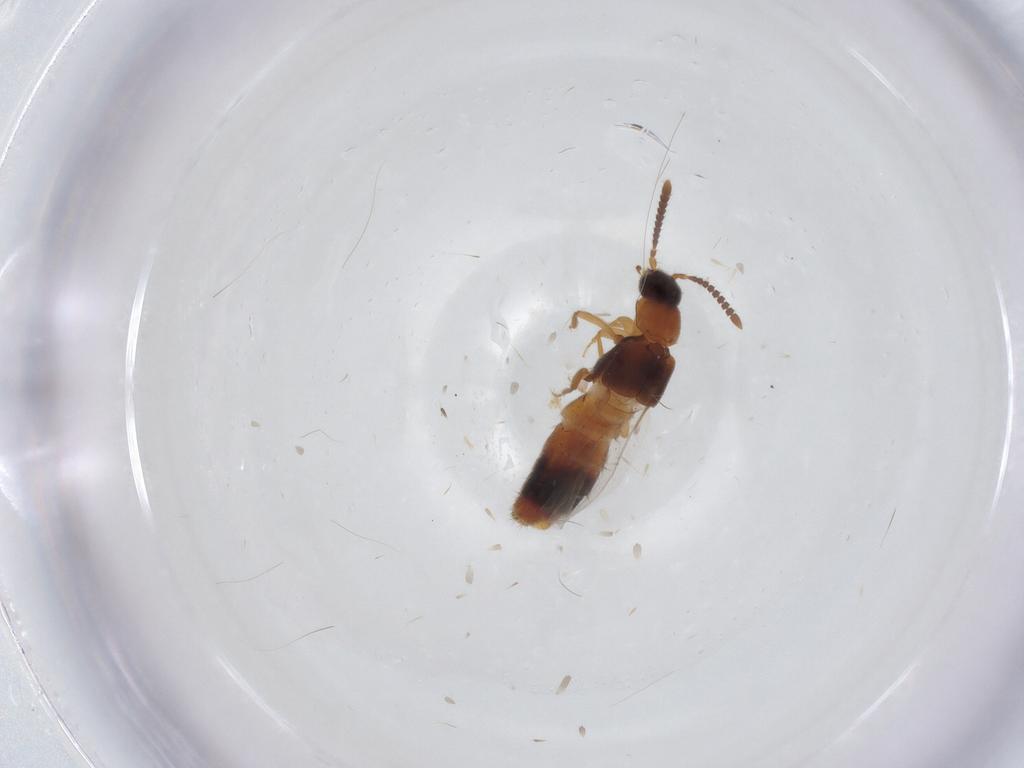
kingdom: Animalia
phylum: Arthropoda
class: Insecta
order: Coleoptera
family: Staphylinidae
